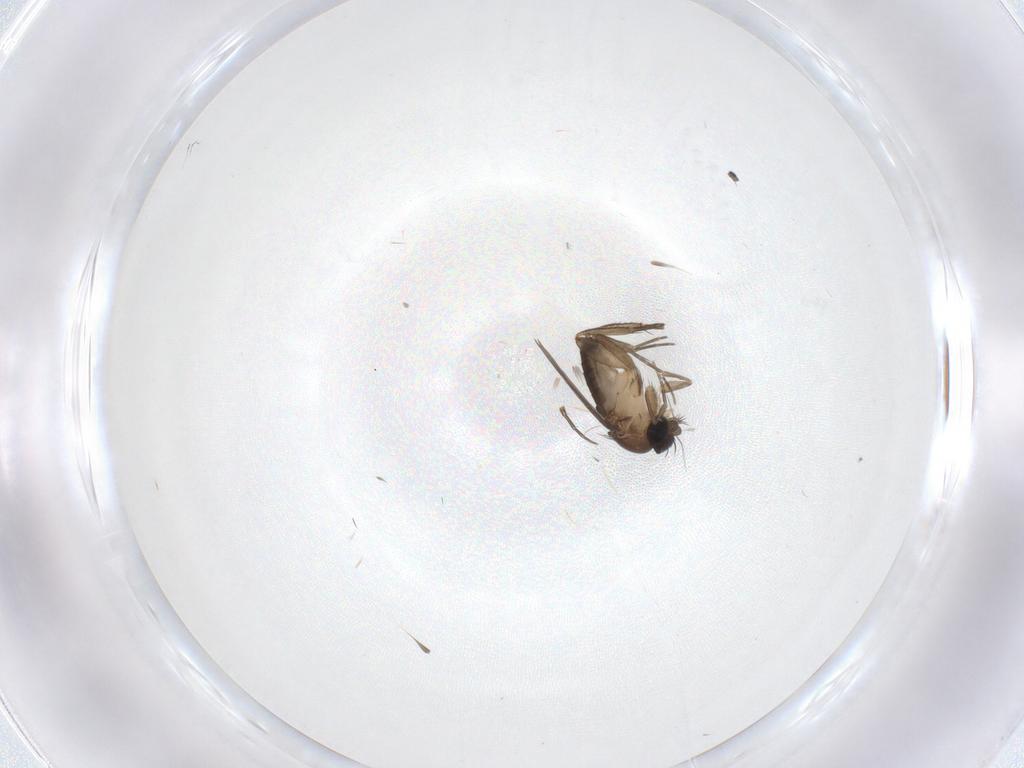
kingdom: Animalia
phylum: Arthropoda
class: Insecta
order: Diptera
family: Phoridae
